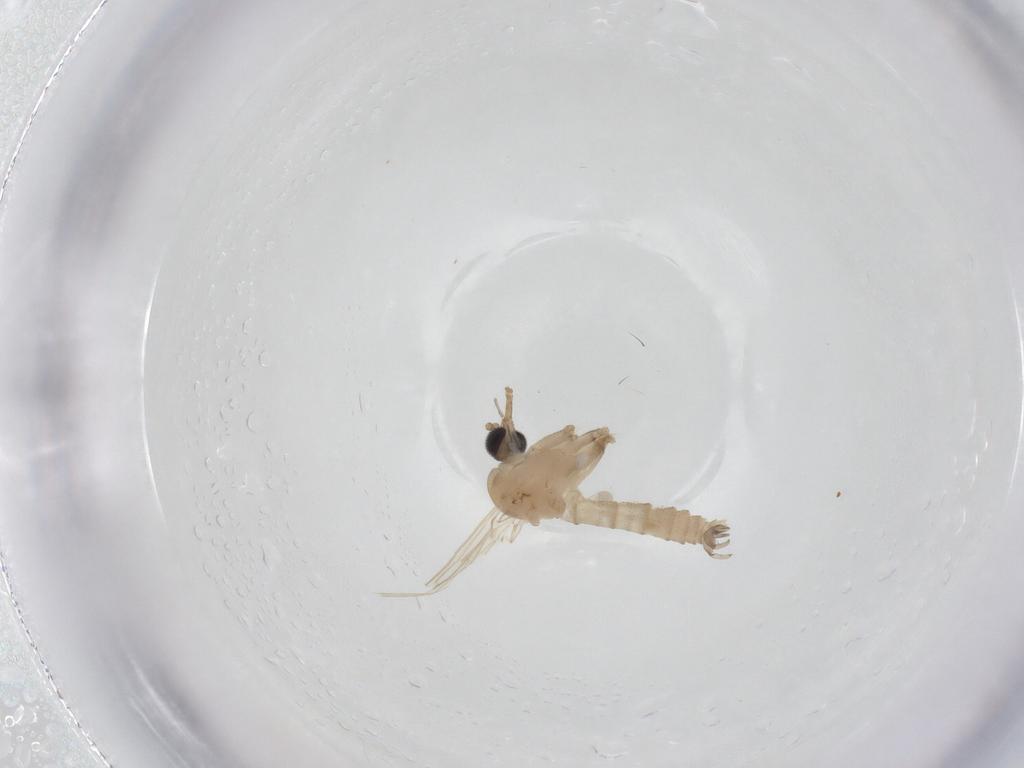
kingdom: Animalia
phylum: Arthropoda
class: Insecta
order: Diptera
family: Psychodidae
